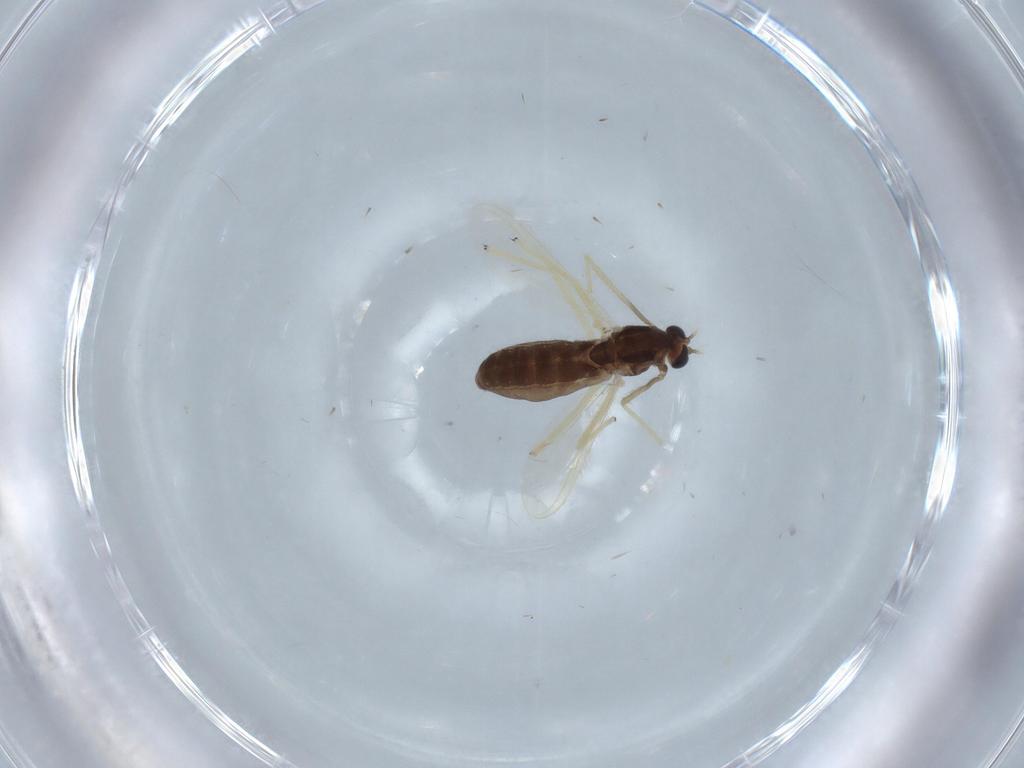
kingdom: Animalia
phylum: Arthropoda
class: Insecta
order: Diptera
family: Chironomidae
